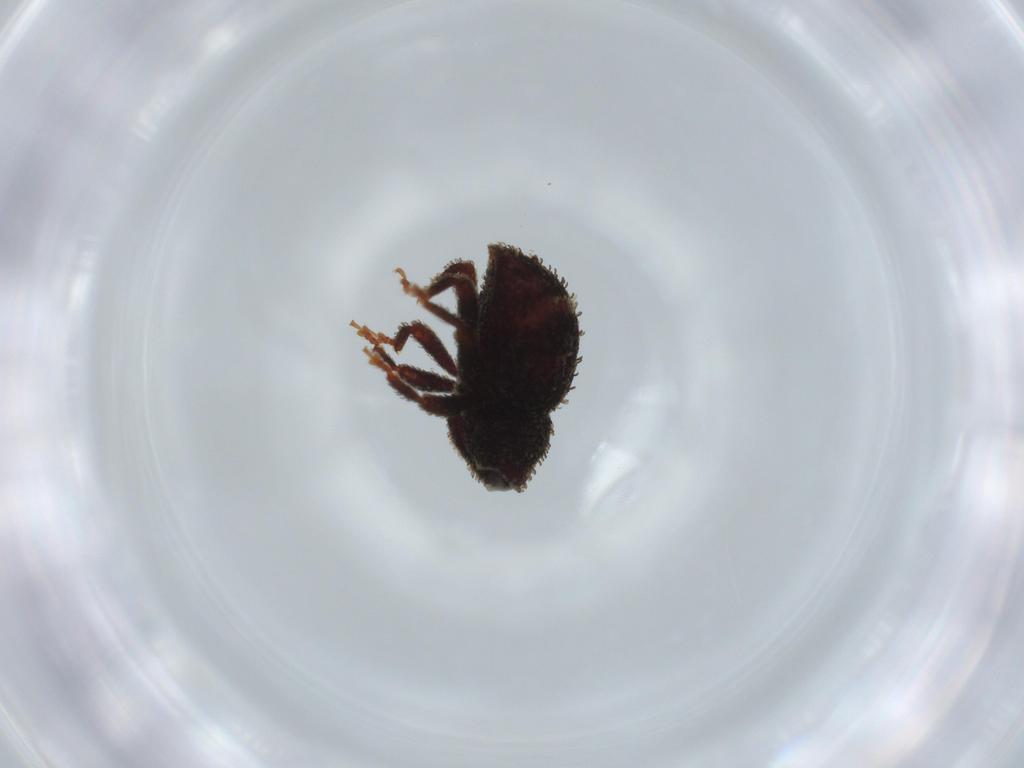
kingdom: Animalia
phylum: Arthropoda
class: Insecta
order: Coleoptera
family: Curculionidae
